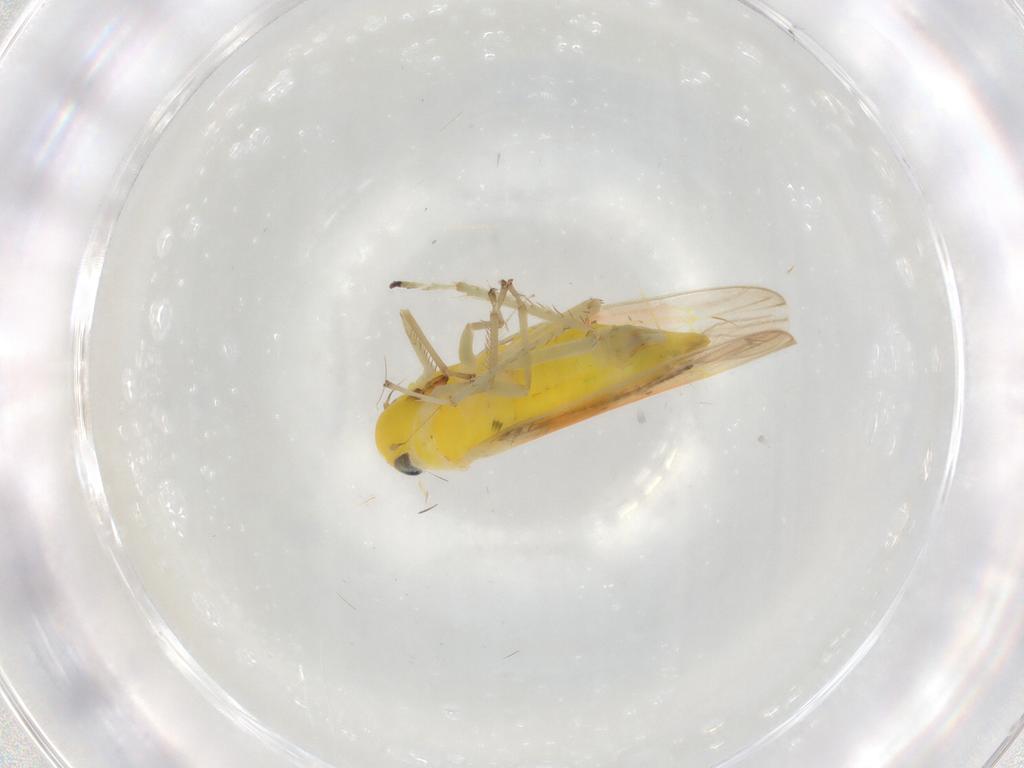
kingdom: Animalia
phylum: Arthropoda
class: Insecta
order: Hemiptera
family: Cicadellidae
